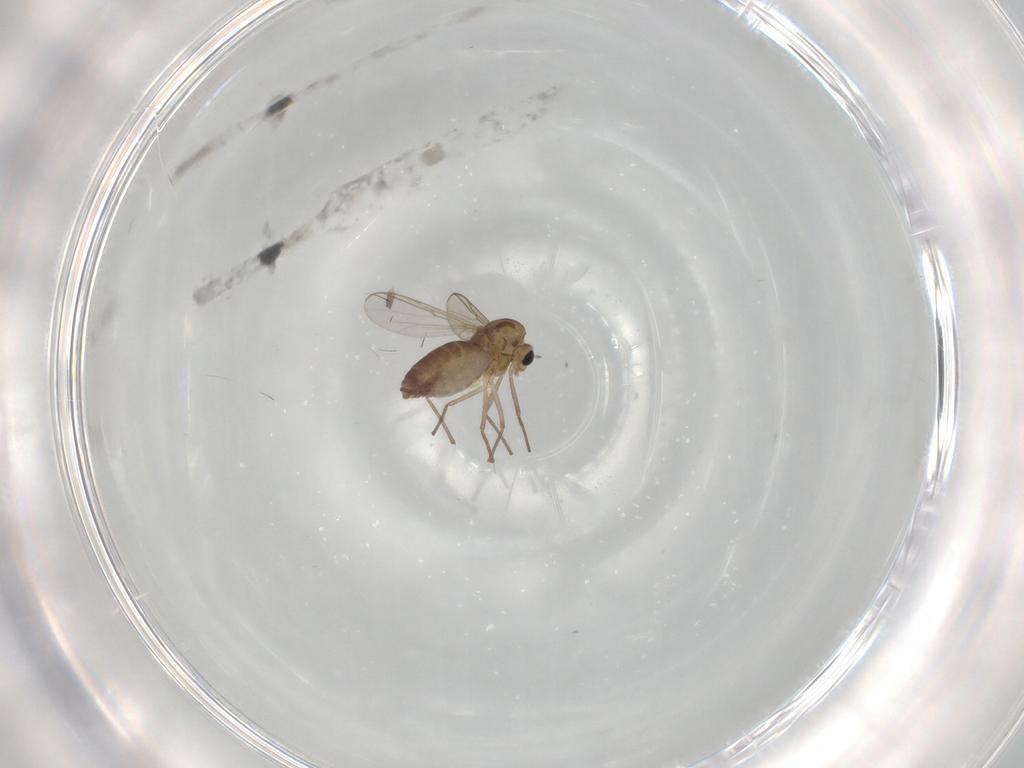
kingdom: Animalia
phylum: Arthropoda
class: Insecta
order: Diptera
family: Chironomidae
